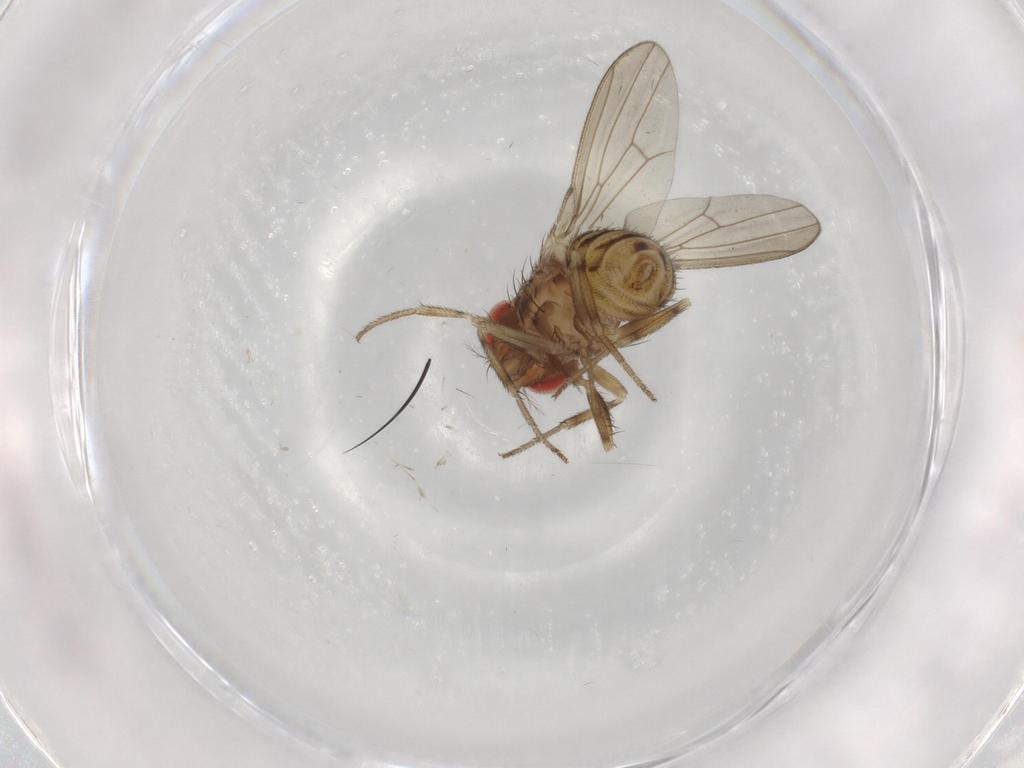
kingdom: Animalia
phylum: Arthropoda
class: Insecta
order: Diptera
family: Drosophilidae
